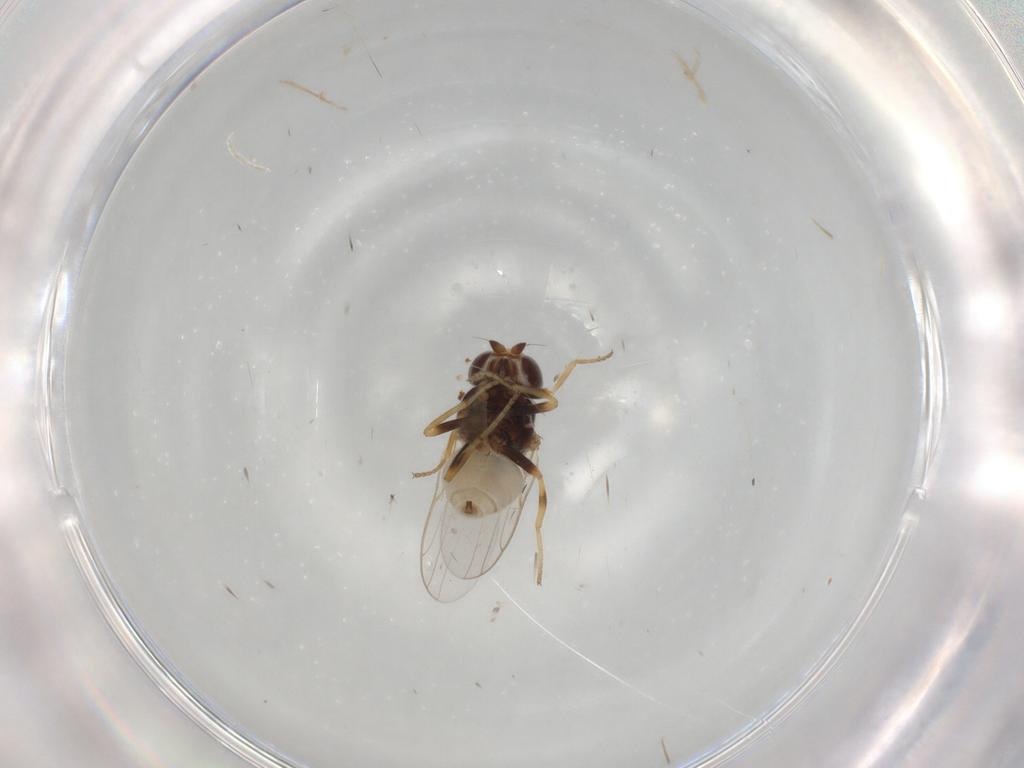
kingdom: Animalia
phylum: Arthropoda
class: Insecta
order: Diptera
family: Chloropidae
